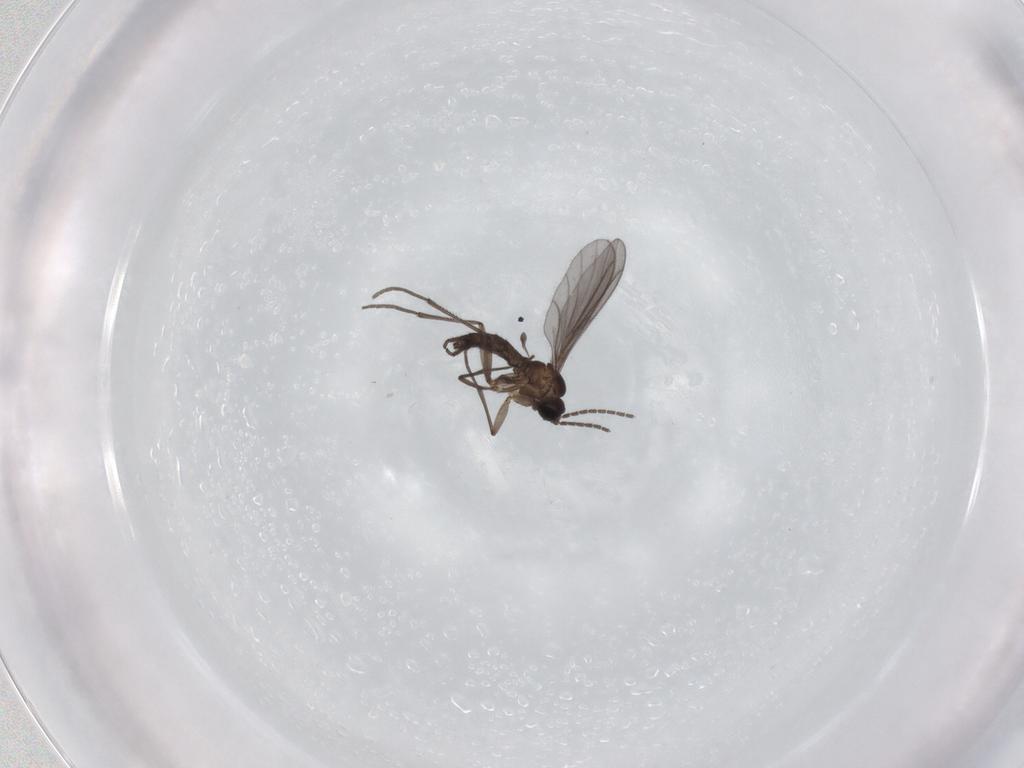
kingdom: Animalia
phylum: Arthropoda
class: Insecta
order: Diptera
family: Sciaridae
